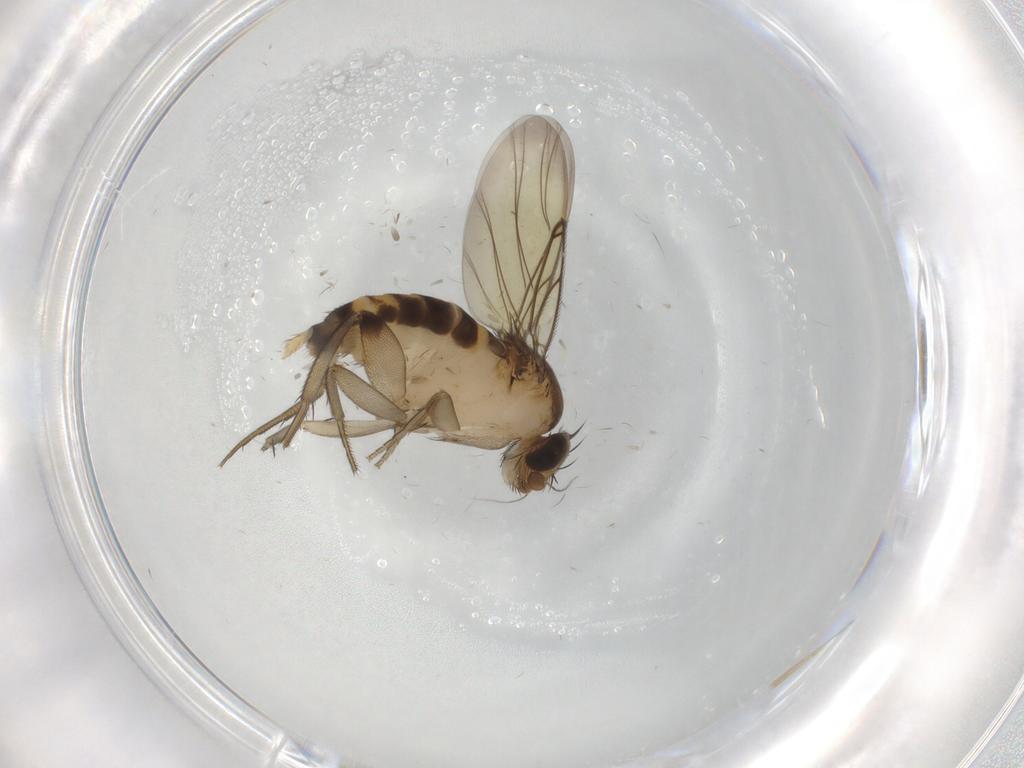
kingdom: Animalia
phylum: Arthropoda
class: Insecta
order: Diptera
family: Phoridae
